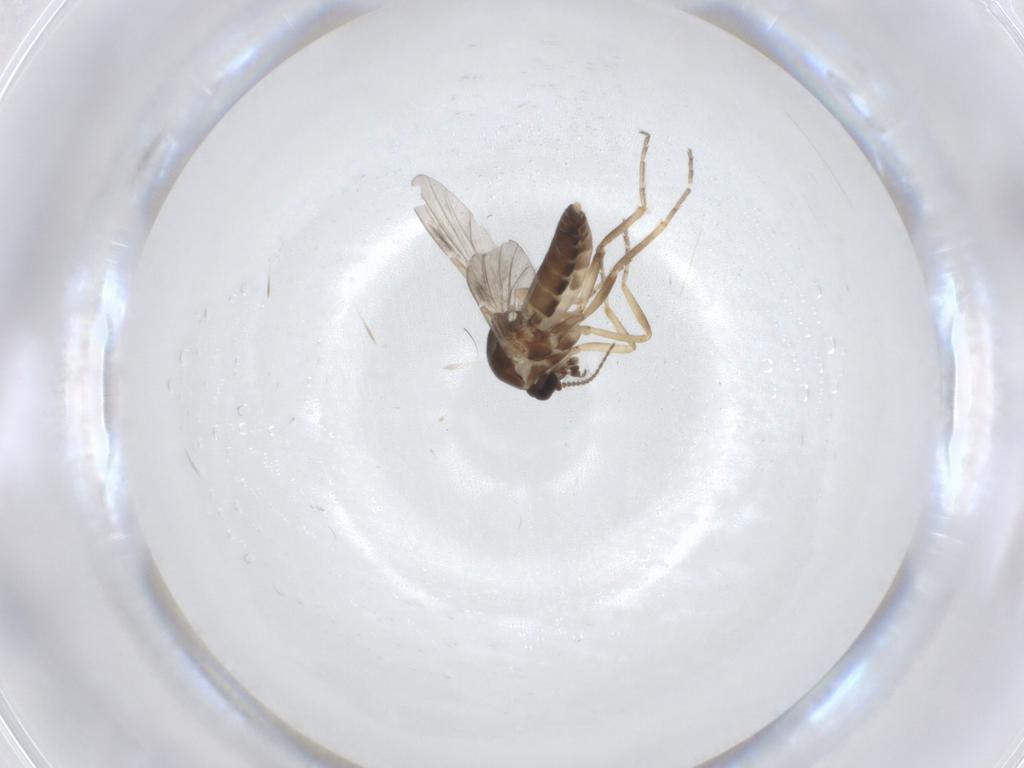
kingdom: Animalia
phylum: Arthropoda
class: Insecta
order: Diptera
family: Ceratopogonidae
